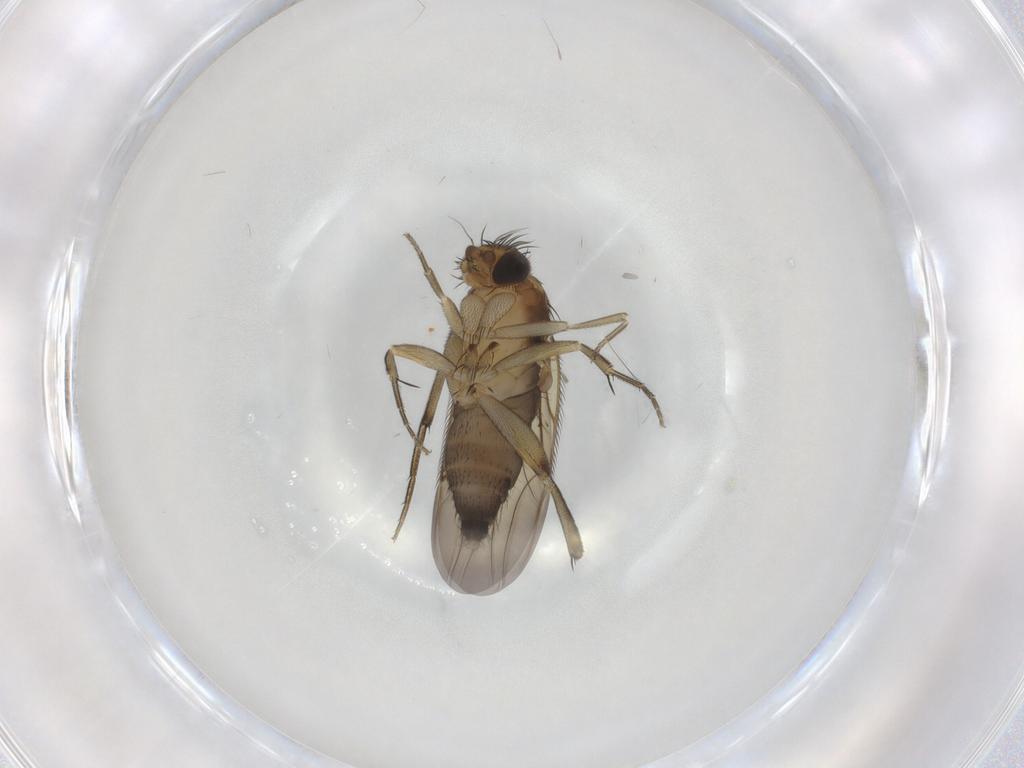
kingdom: Animalia
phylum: Arthropoda
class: Insecta
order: Diptera
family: Phoridae
